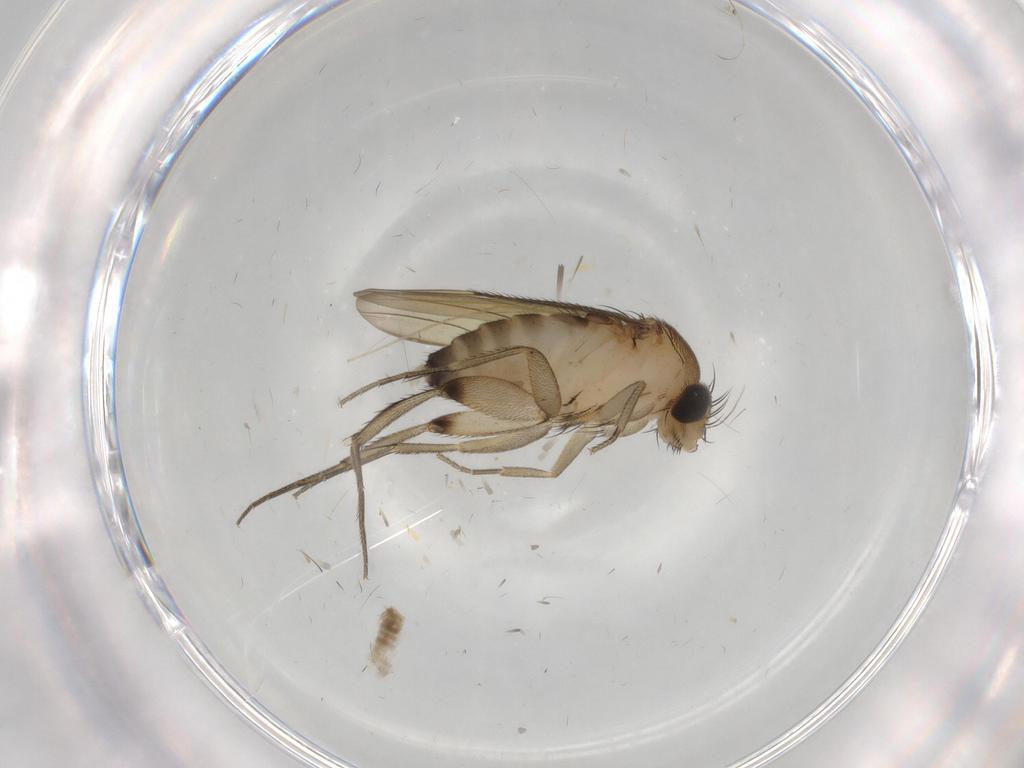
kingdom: Animalia
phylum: Arthropoda
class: Insecta
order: Diptera
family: Phoridae
